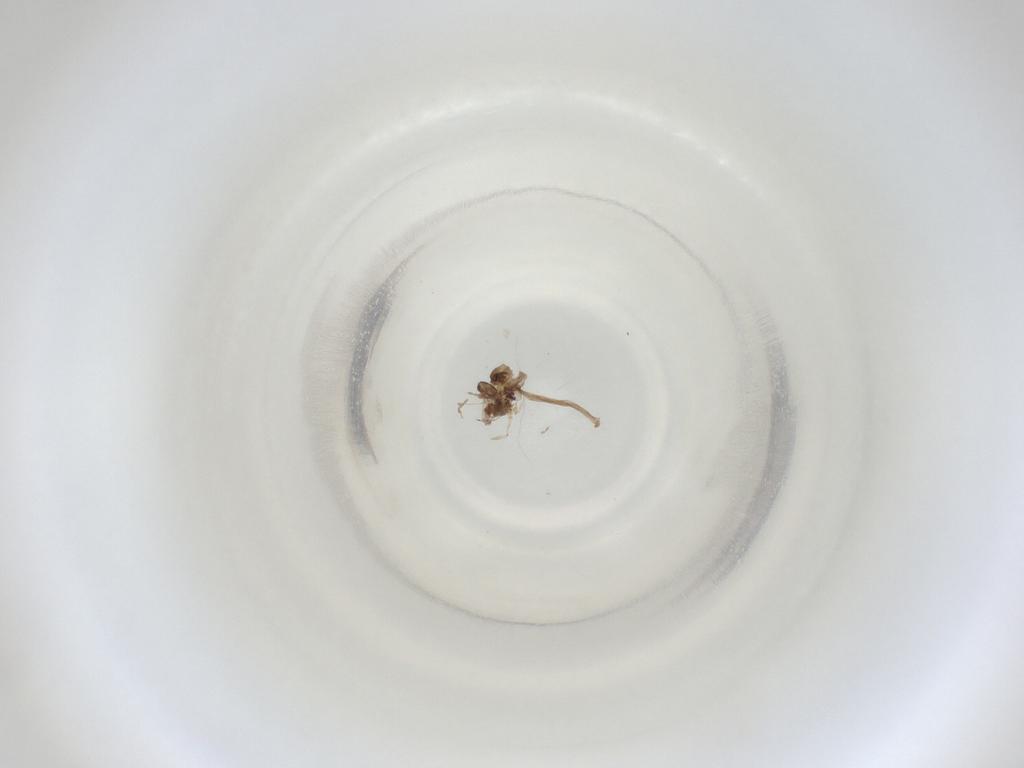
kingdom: Animalia
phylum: Arthropoda
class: Insecta
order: Diptera
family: Cecidomyiidae
